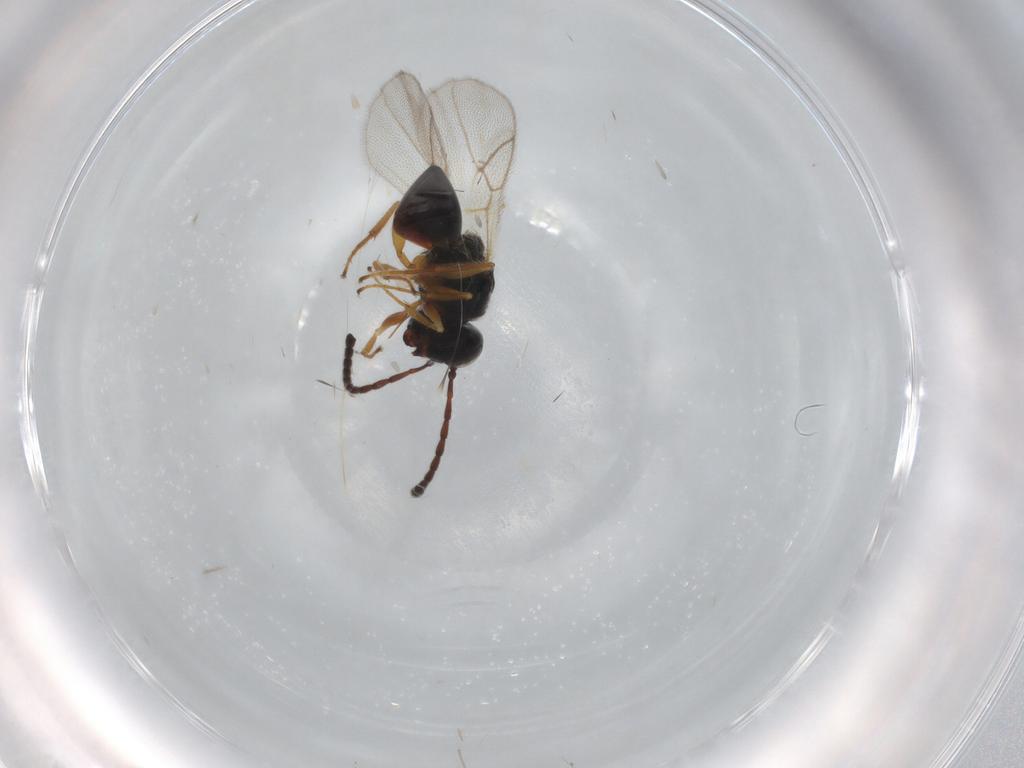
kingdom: Animalia
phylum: Arthropoda
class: Insecta
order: Hymenoptera
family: Figitidae
